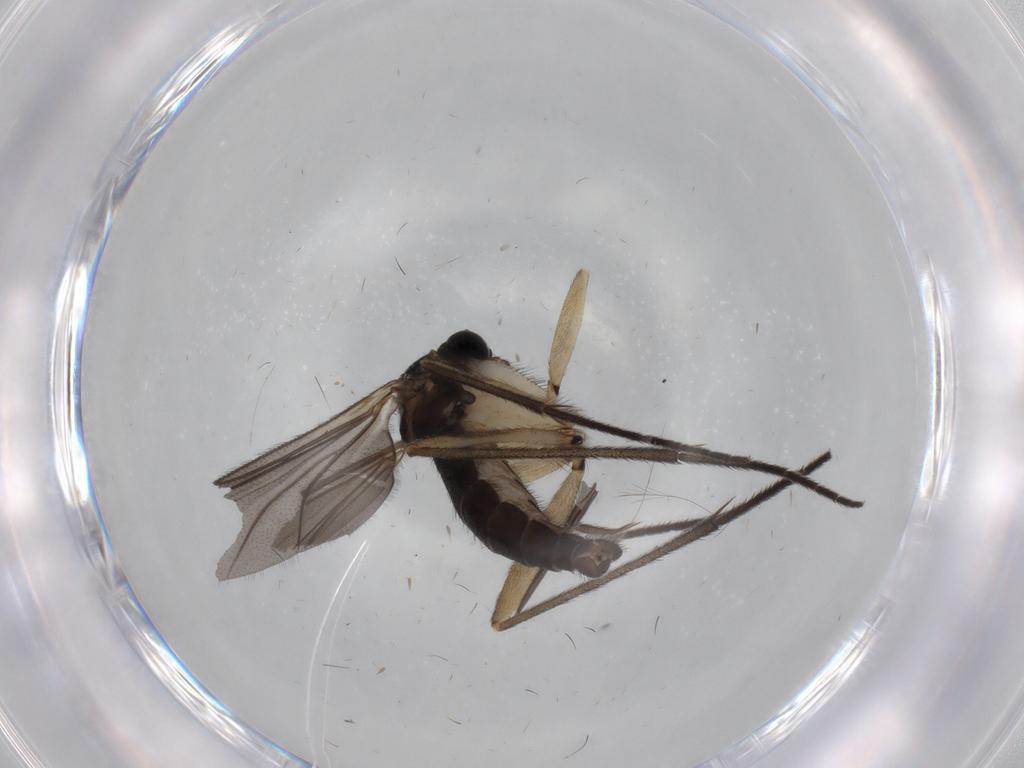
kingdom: Animalia
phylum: Arthropoda
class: Insecta
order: Diptera
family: Sciaridae
